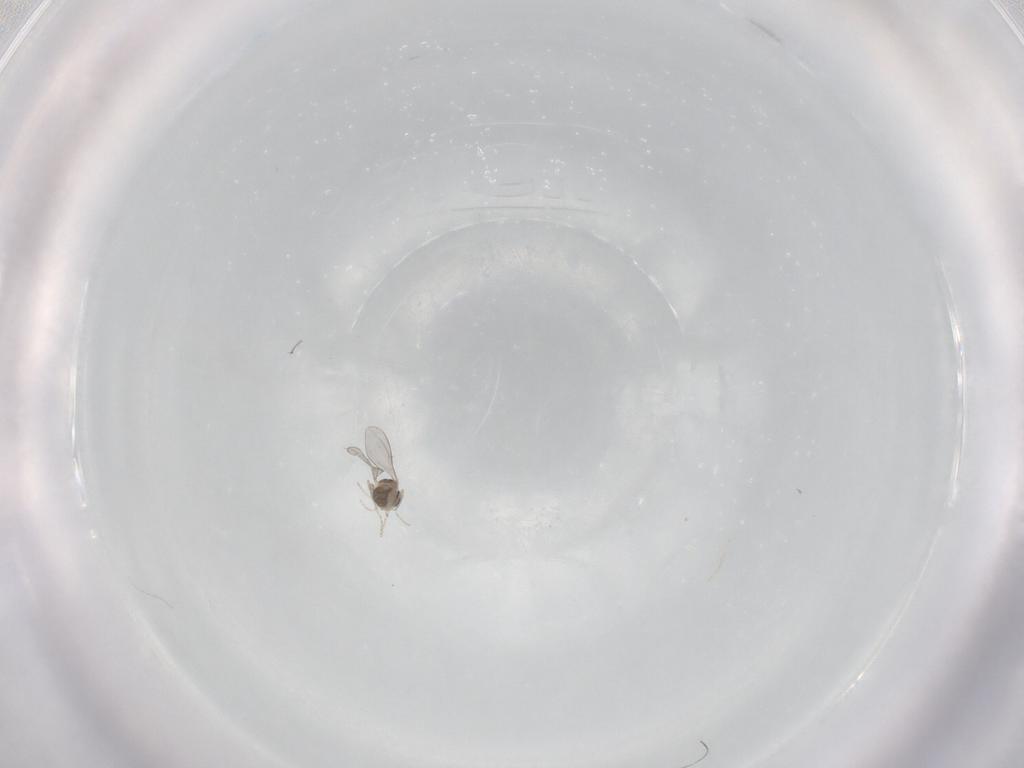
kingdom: Animalia
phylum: Arthropoda
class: Insecta
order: Diptera
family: Cecidomyiidae
